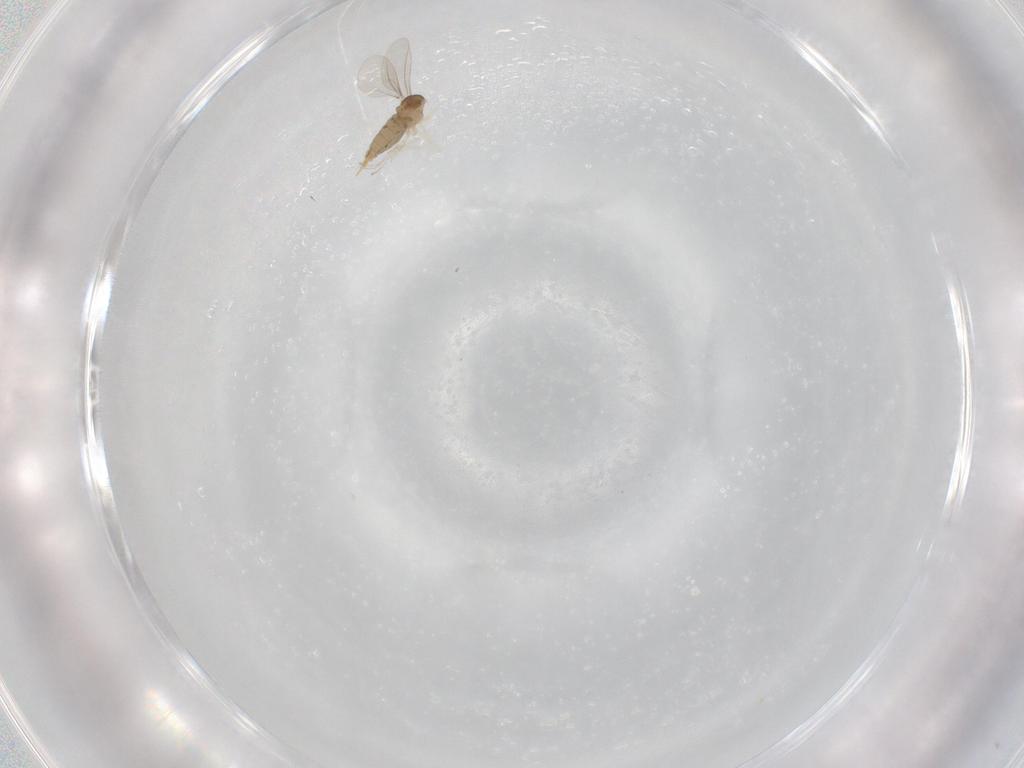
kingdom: Animalia
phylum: Arthropoda
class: Insecta
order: Diptera
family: Cecidomyiidae
